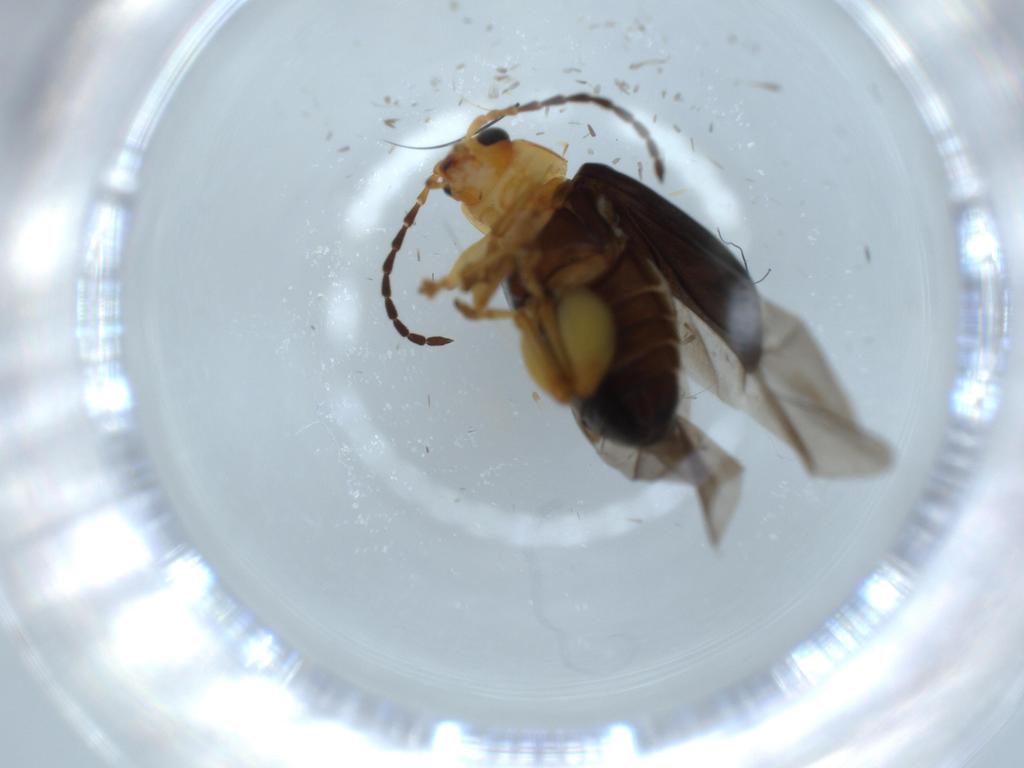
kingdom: Animalia
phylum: Arthropoda
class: Insecta
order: Coleoptera
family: Chrysomelidae
